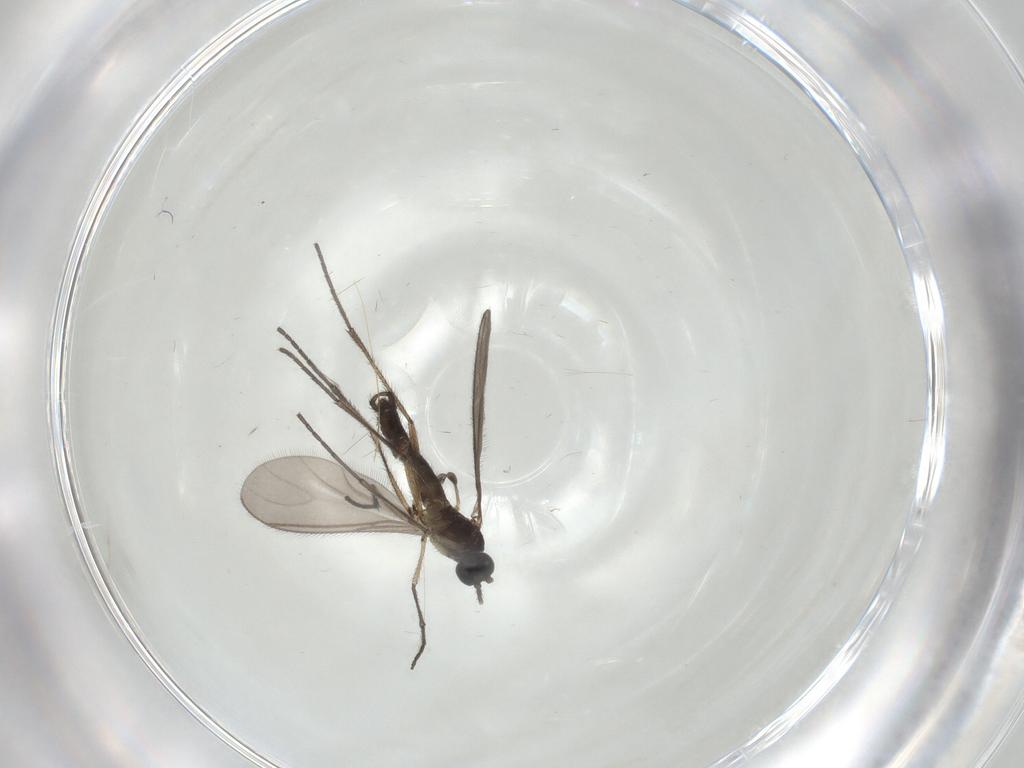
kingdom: Animalia
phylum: Arthropoda
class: Insecta
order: Diptera
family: Sciaridae
